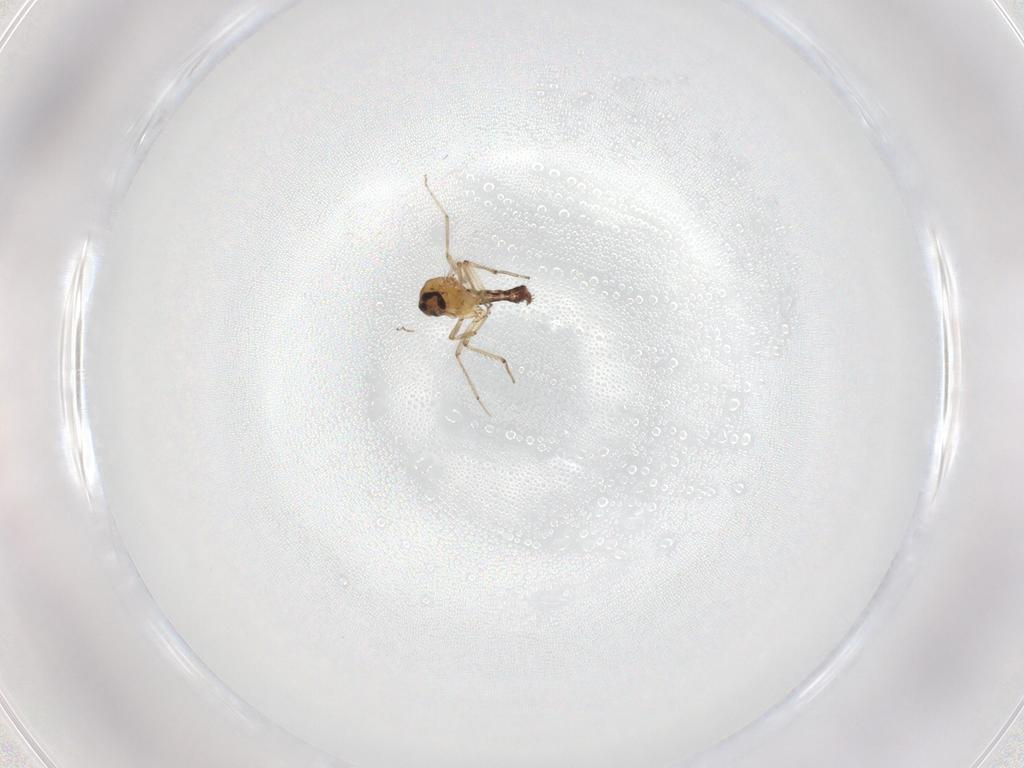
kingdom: Animalia
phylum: Arthropoda
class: Insecta
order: Diptera
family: Ceratopogonidae
